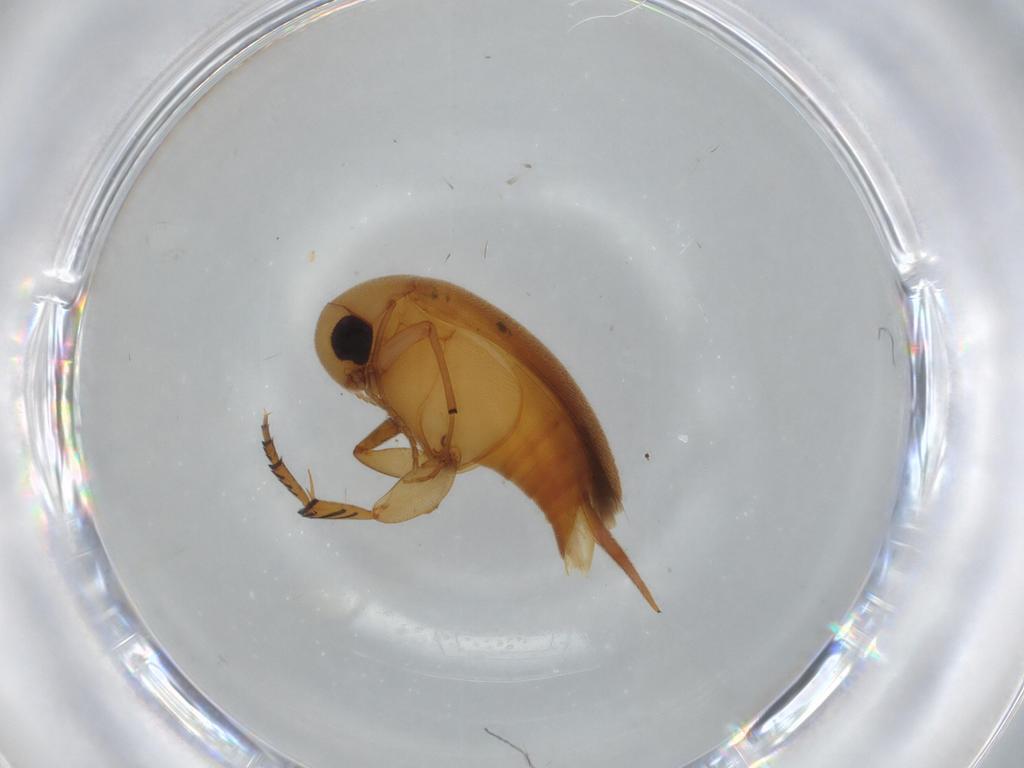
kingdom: Animalia
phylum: Arthropoda
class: Insecta
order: Coleoptera
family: Mordellidae
